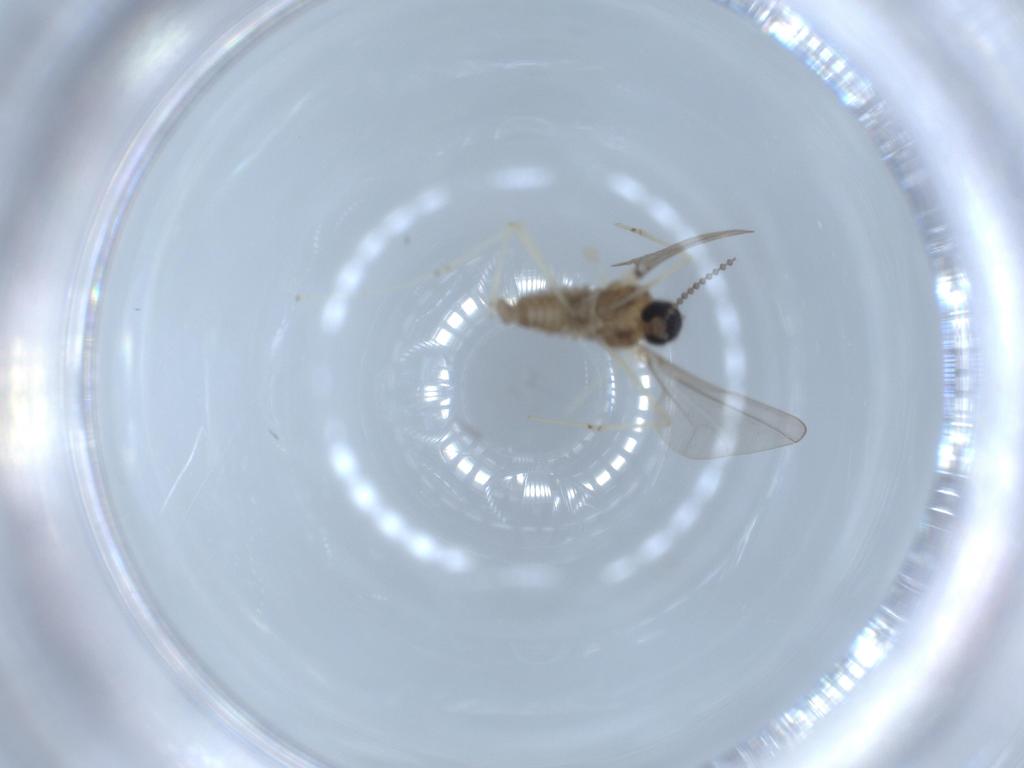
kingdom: Animalia
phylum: Arthropoda
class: Insecta
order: Diptera
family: Cecidomyiidae
